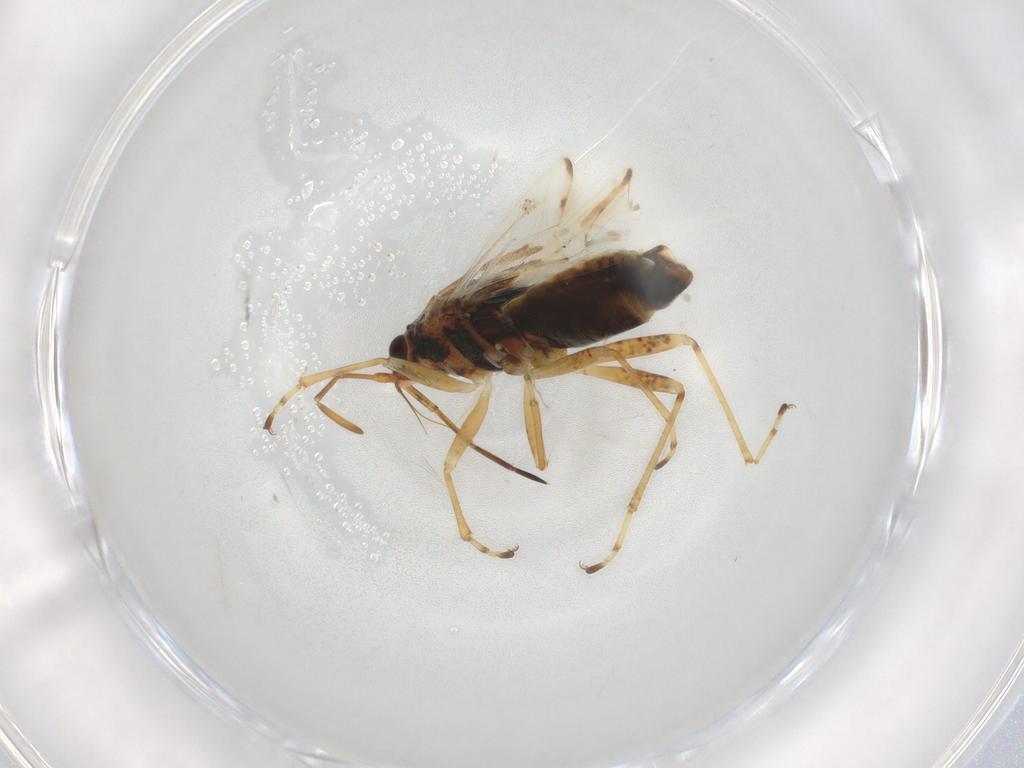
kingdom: Animalia
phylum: Arthropoda
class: Insecta
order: Hemiptera
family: Lygaeidae
